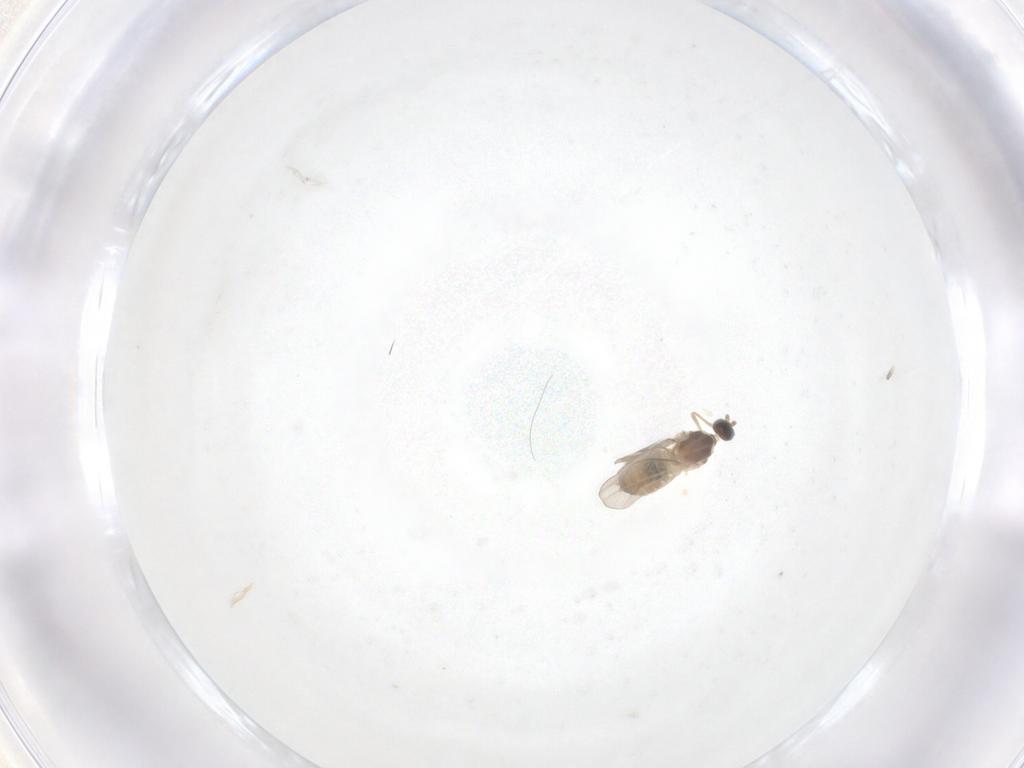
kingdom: Animalia
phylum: Arthropoda
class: Insecta
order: Diptera
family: Cecidomyiidae
